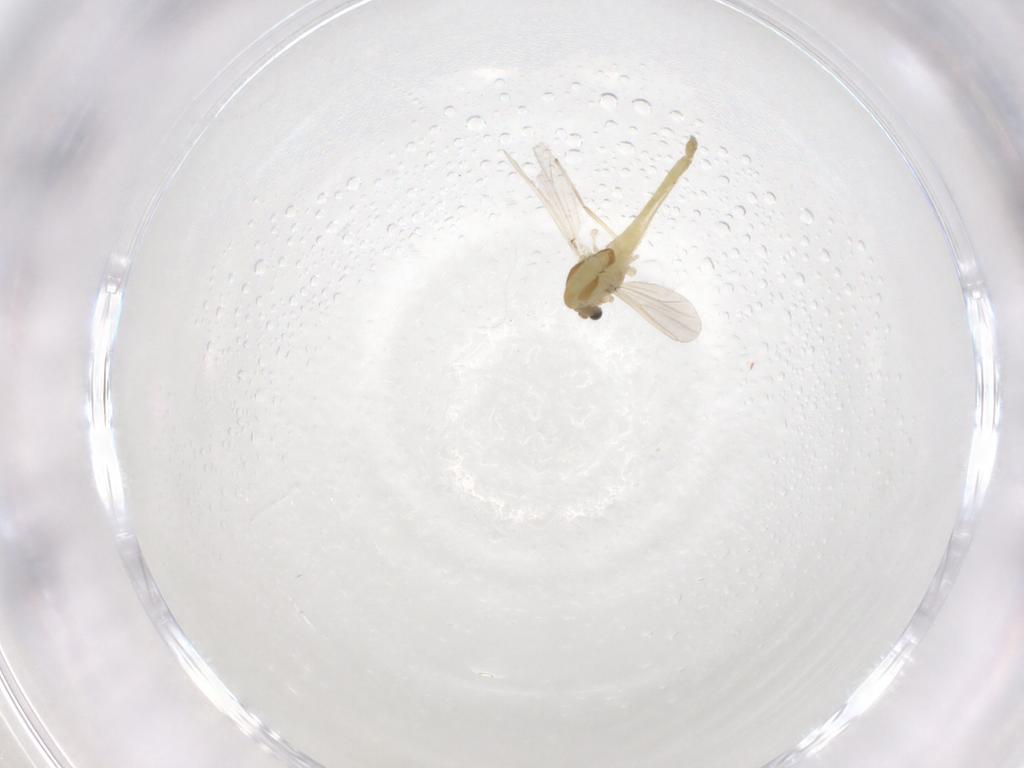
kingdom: Animalia
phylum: Arthropoda
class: Insecta
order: Diptera
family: Chironomidae
